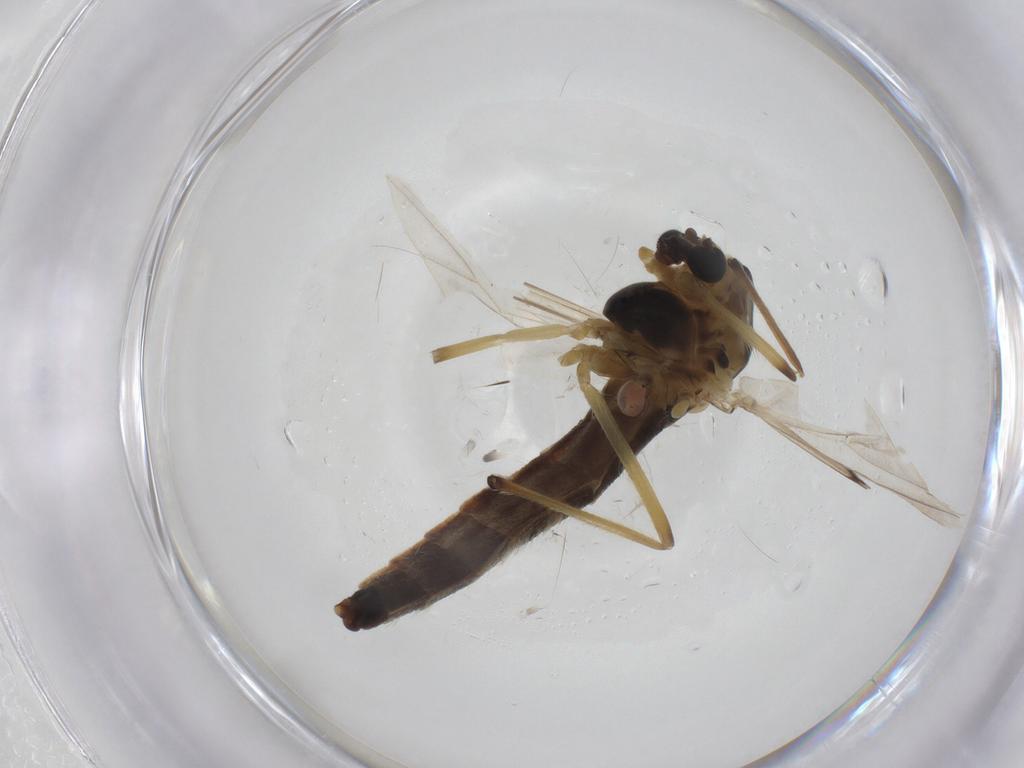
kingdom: Animalia
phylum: Arthropoda
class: Insecta
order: Diptera
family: Chironomidae
